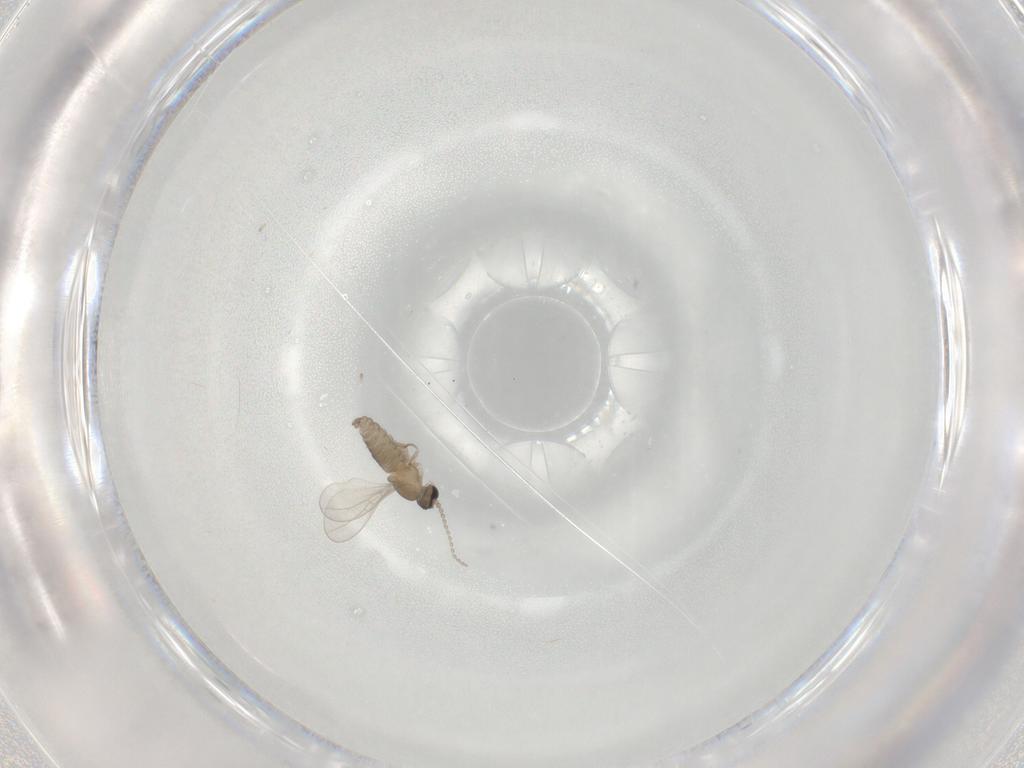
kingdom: Animalia
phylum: Arthropoda
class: Insecta
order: Diptera
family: Cecidomyiidae
